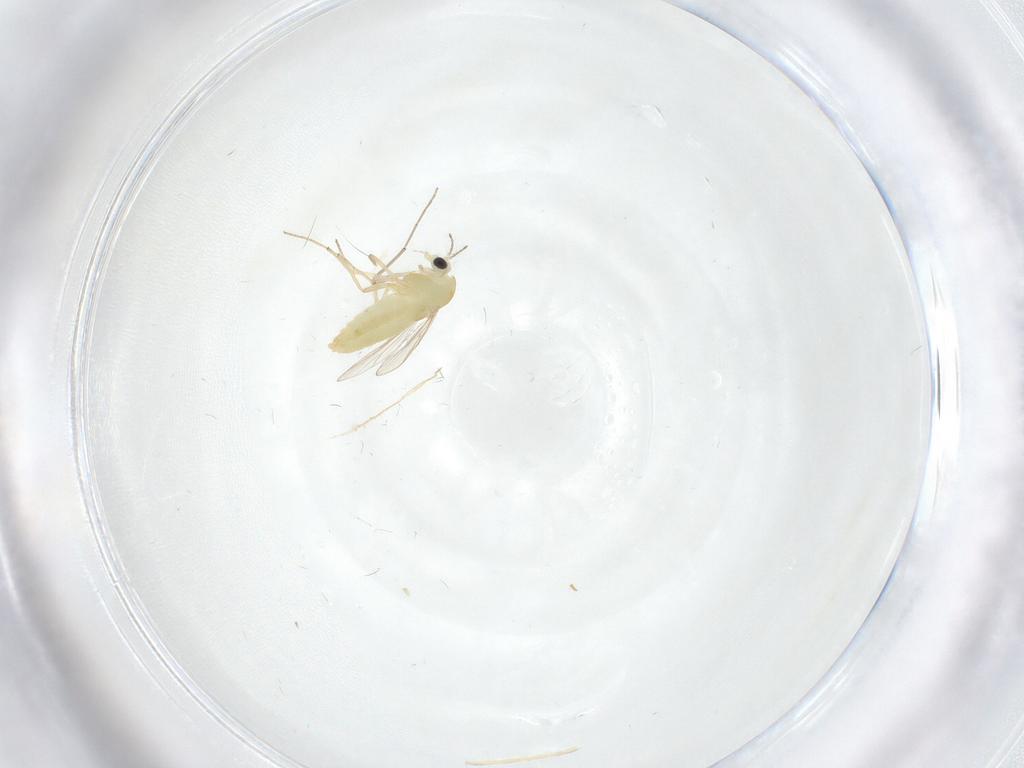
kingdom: Animalia
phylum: Arthropoda
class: Insecta
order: Diptera
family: Chironomidae
